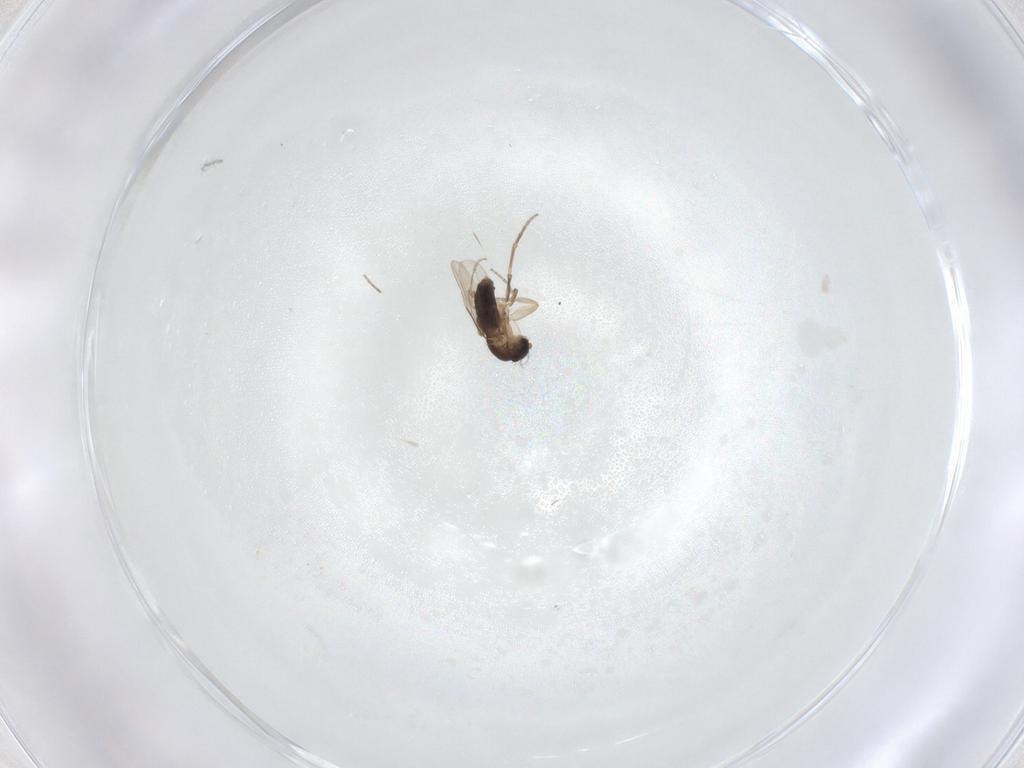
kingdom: Animalia
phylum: Arthropoda
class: Insecta
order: Diptera
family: Chironomidae
